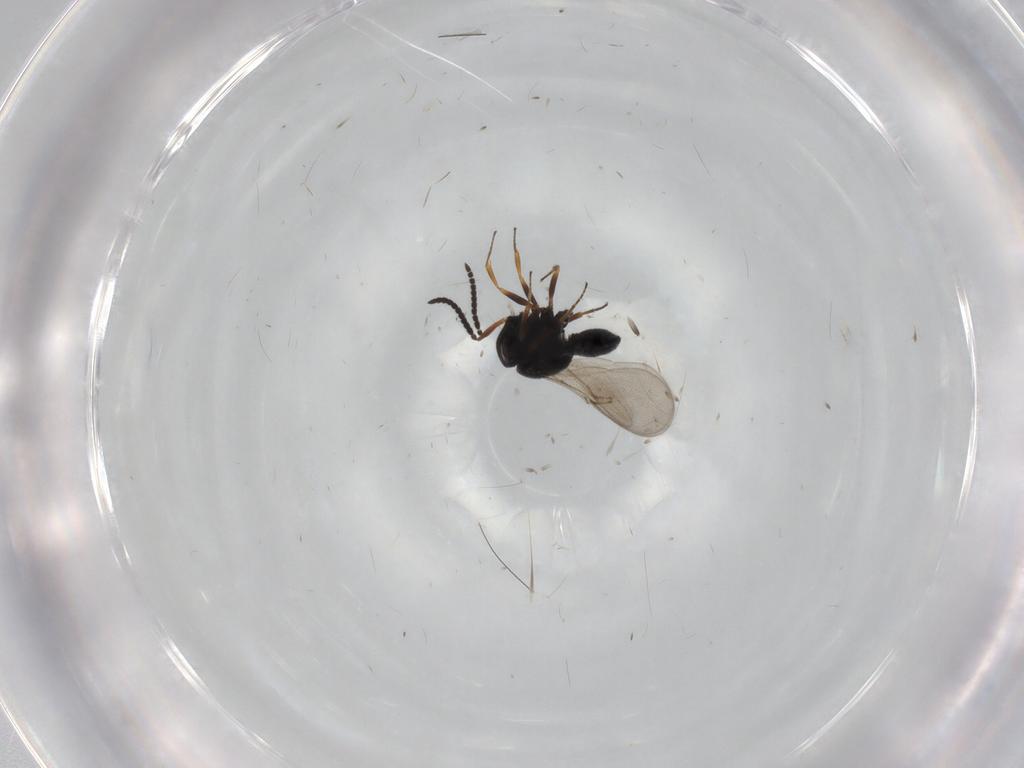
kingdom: Animalia
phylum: Arthropoda
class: Insecta
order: Hymenoptera
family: Scelionidae
